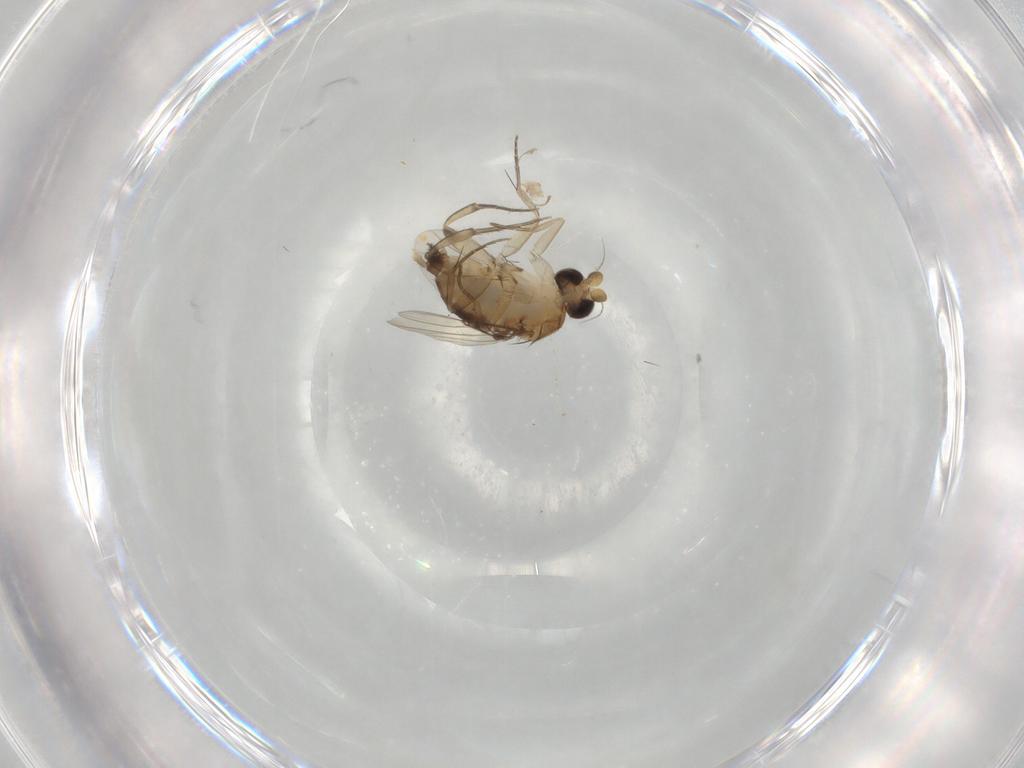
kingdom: Animalia
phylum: Arthropoda
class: Insecta
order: Diptera
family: Phoridae
